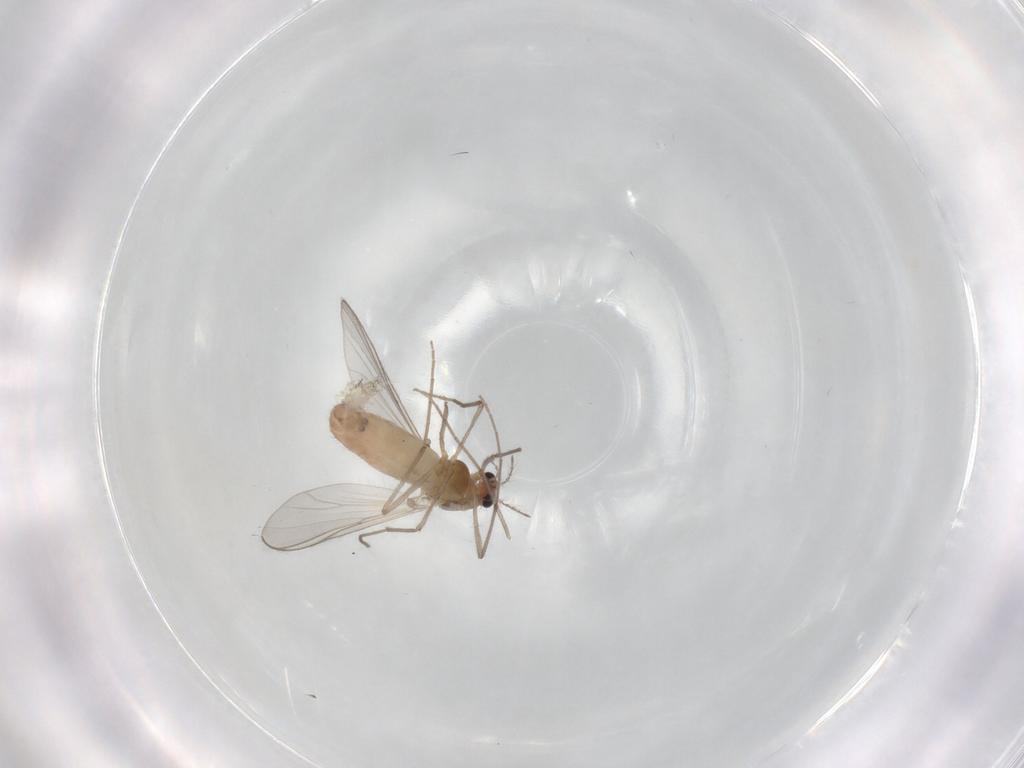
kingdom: Animalia
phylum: Arthropoda
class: Insecta
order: Diptera
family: Chironomidae
